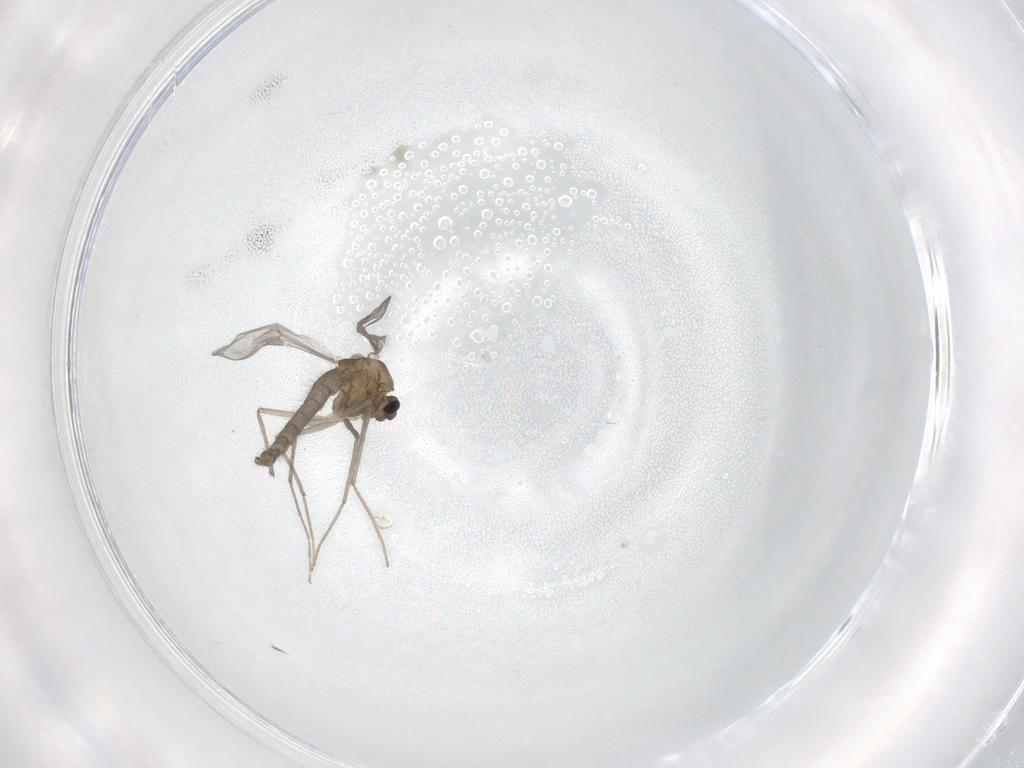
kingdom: Animalia
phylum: Arthropoda
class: Insecta
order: Diptera
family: Chironomidae
